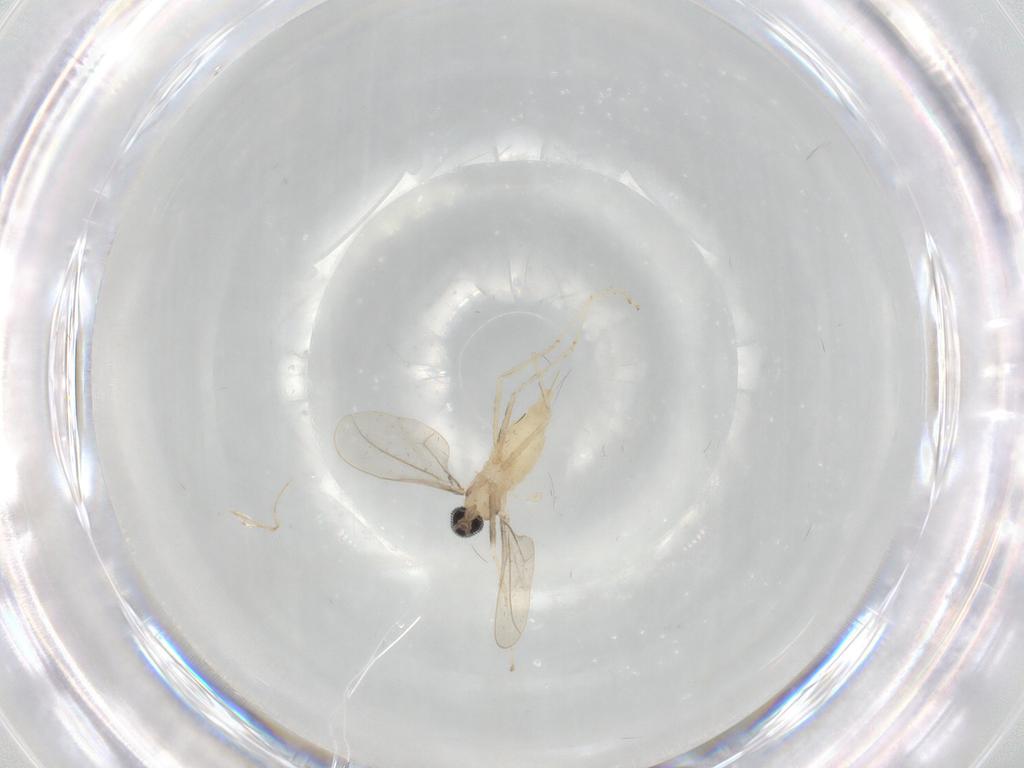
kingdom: Animalia
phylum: Arthropoda
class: Insecta
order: Diptera
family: Cecidomyiidae
